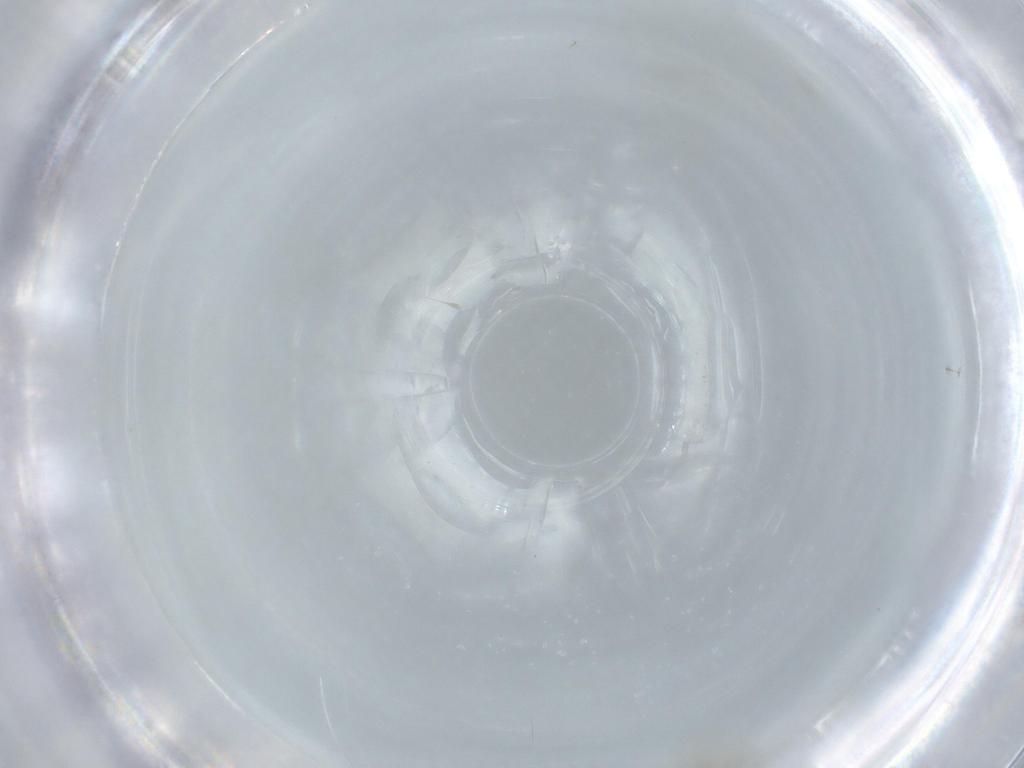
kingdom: Animalia
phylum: Arthropoda
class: Insecta
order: Hemiptera
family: Cicadellidae
